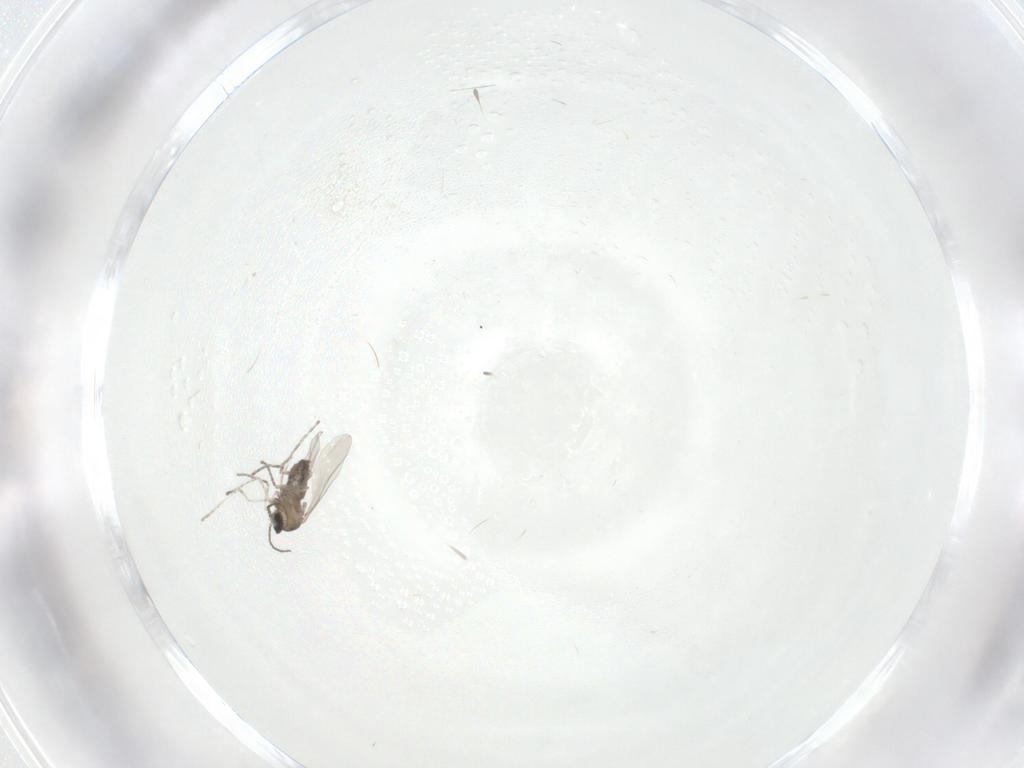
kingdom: Animalia
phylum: Arthropoda
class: Insecta
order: Diptera
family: Cecidomyiidae
